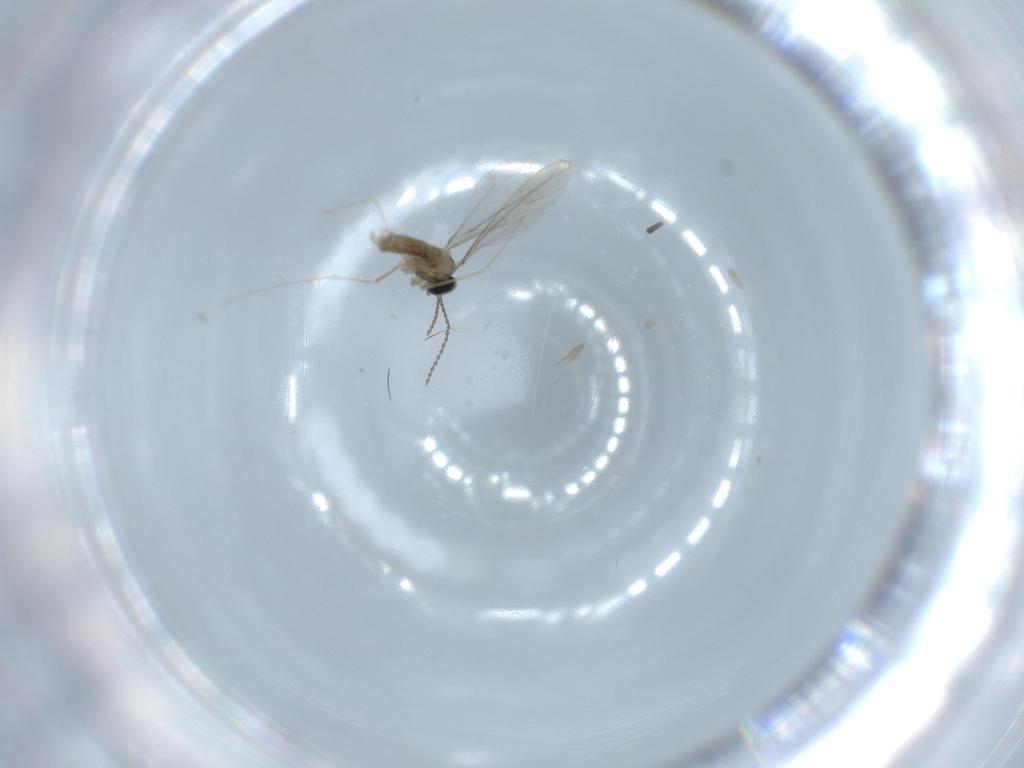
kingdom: Animalia
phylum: Arthropoda
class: Insecta
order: Diptera
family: Cecidomyiidae
